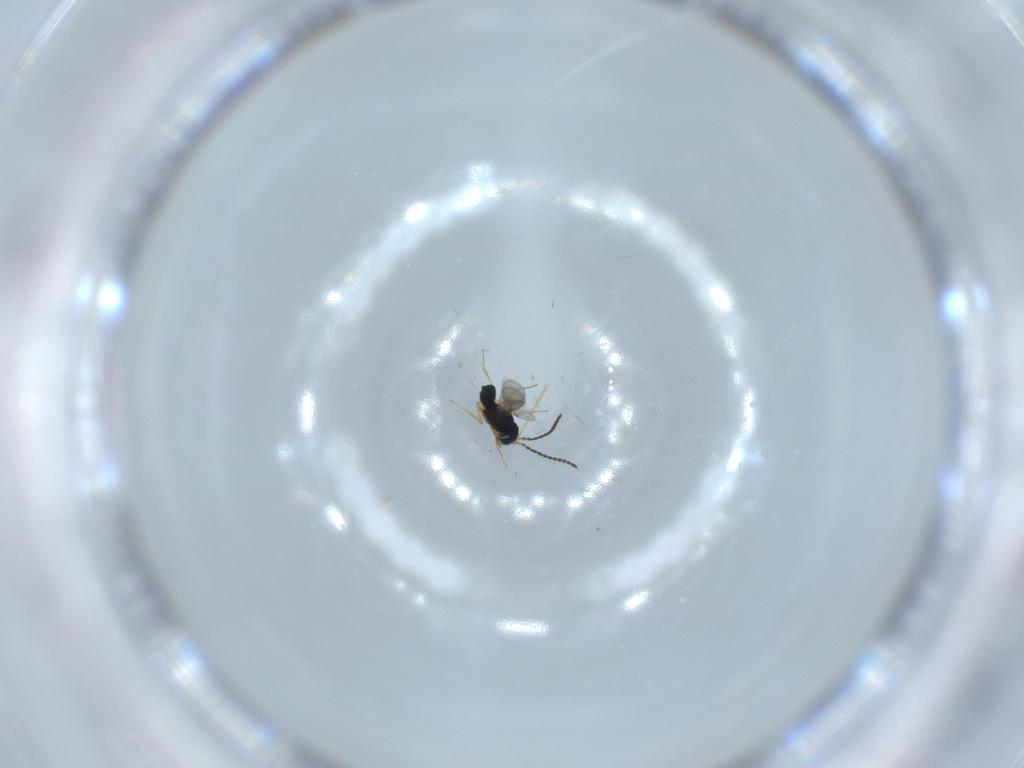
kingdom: Animalia
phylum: Arthropoda
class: Insecta
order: Hymenoptera
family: Scelionidae
